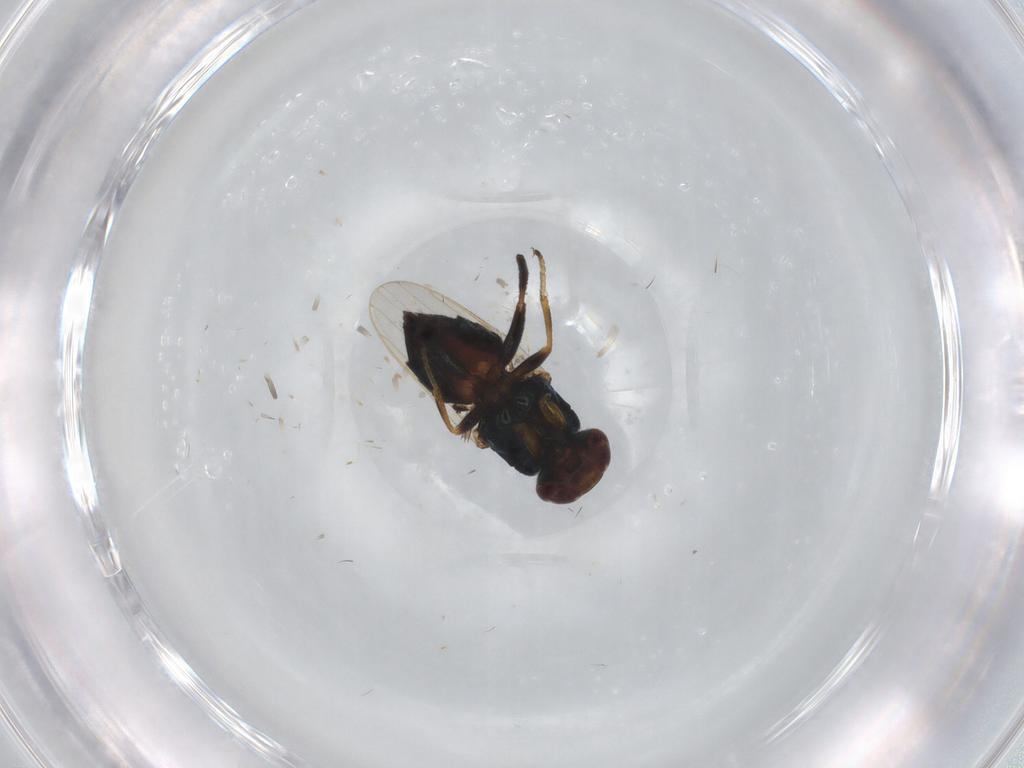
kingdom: Animalia
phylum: Arthropoda
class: Insecta
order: Diptera
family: Chloropidae
